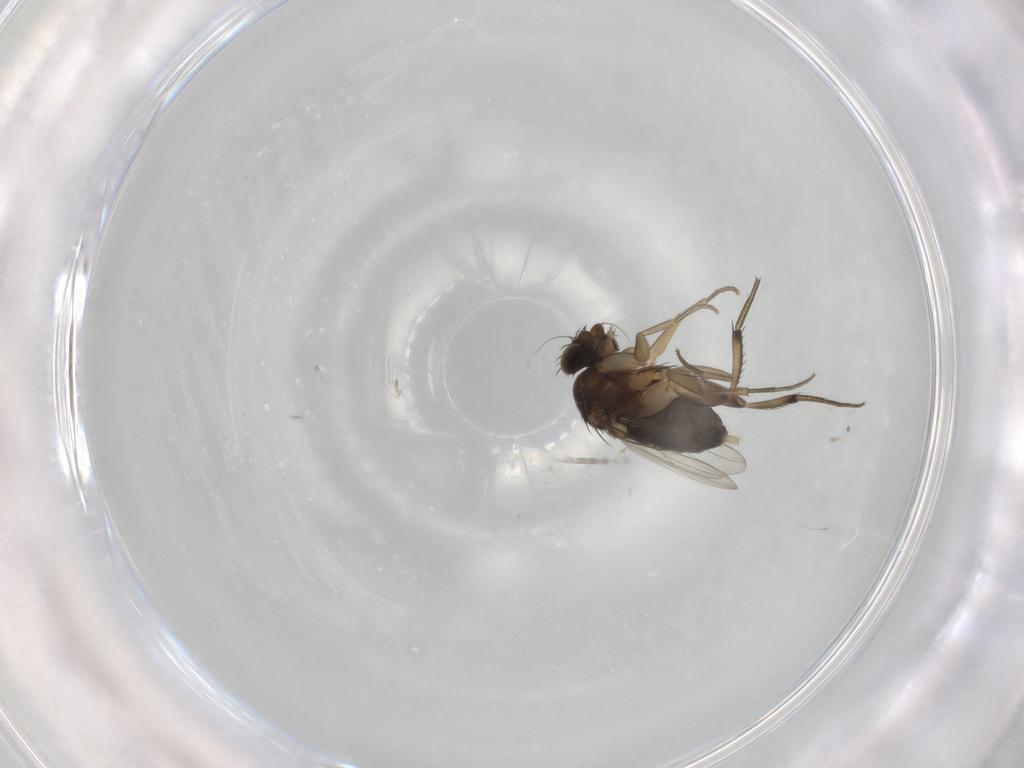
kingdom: Animalia
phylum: Arthropoda
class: Insecta
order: Diptera
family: Phoridae
